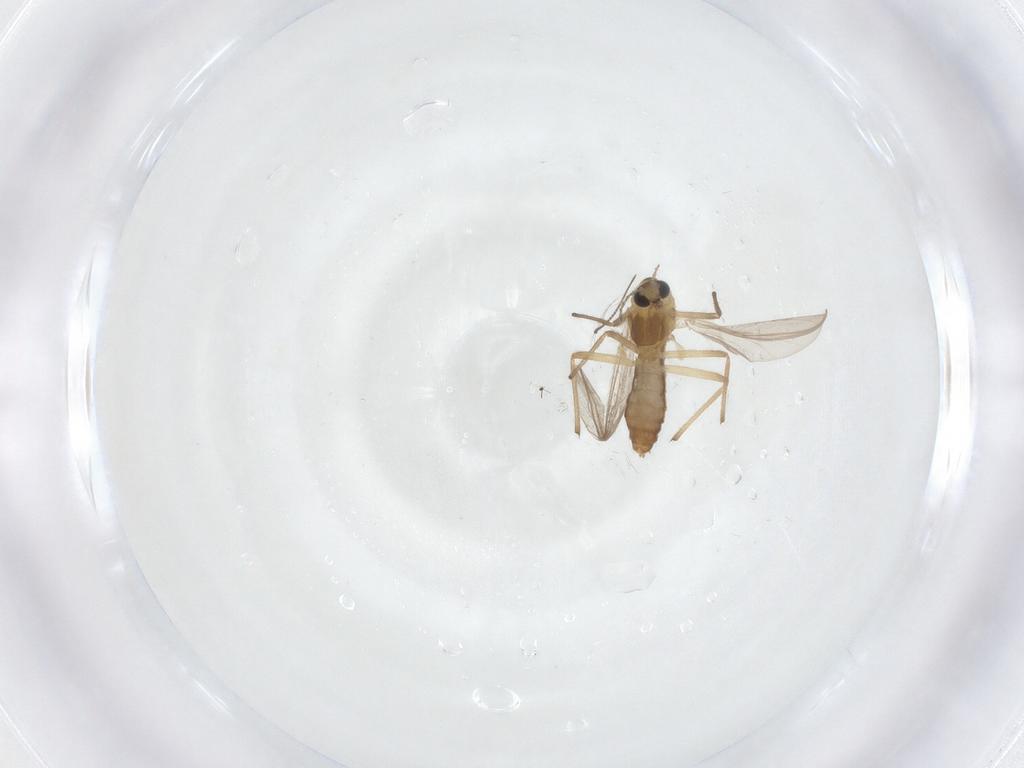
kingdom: Animalia
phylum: Arthropoda
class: Insecta
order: Diptera
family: Chironomidae
